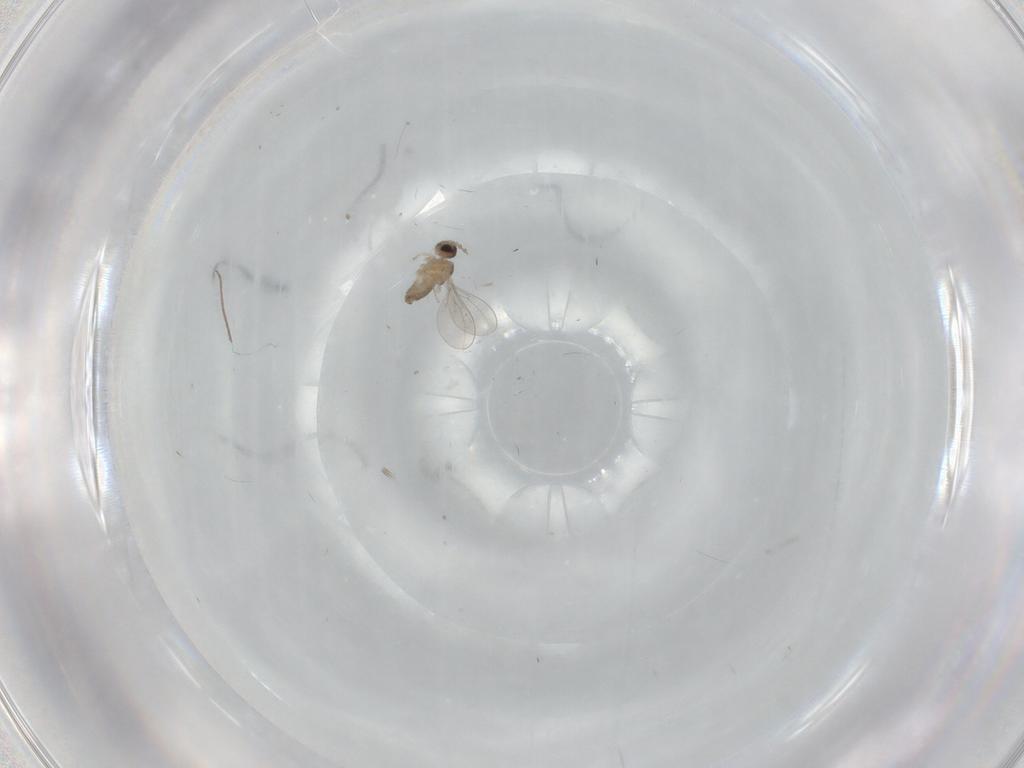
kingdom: Animalia
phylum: Arthropoda
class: Insecta
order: Diptera
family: Cecidomyiidae
